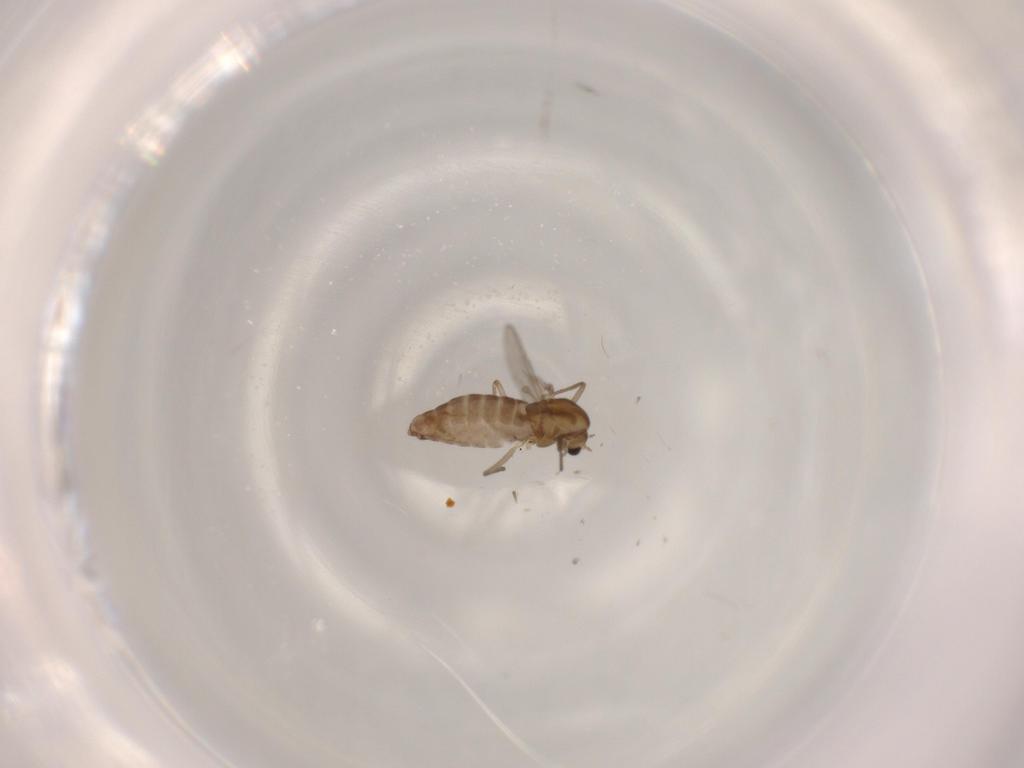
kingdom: Animalia
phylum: Arthropoda
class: Insecta
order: Diptera
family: Chironomidae
